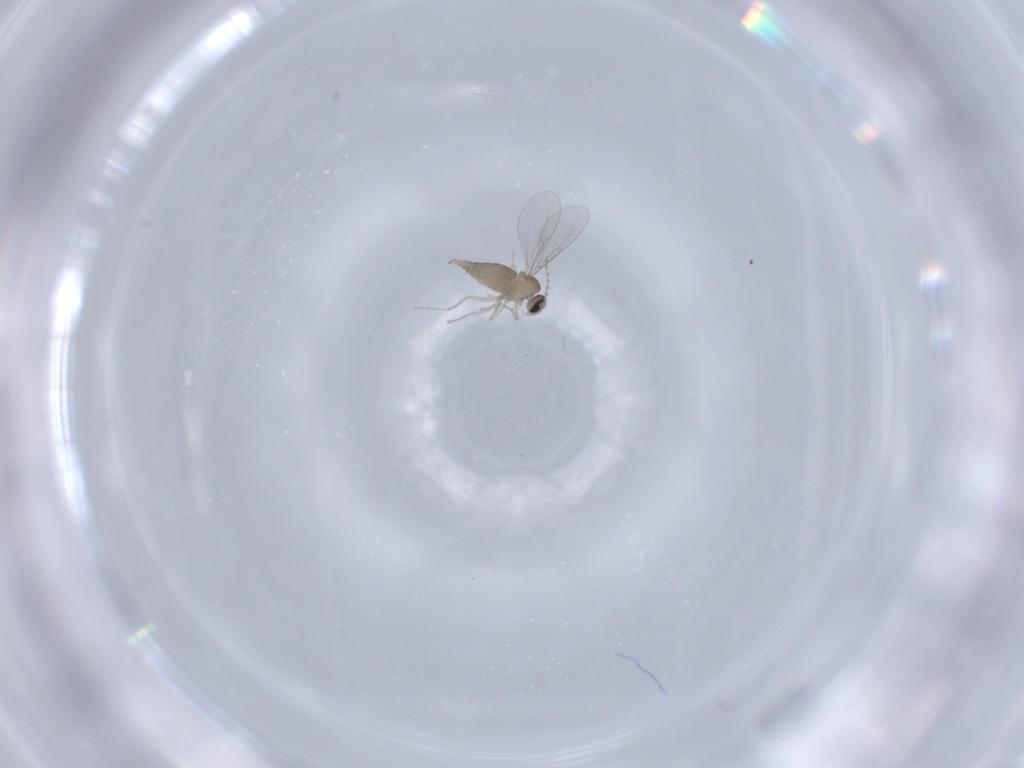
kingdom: Animalia
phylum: Arthropoda
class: Insecta
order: Diptera
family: Cecidomyiidae
